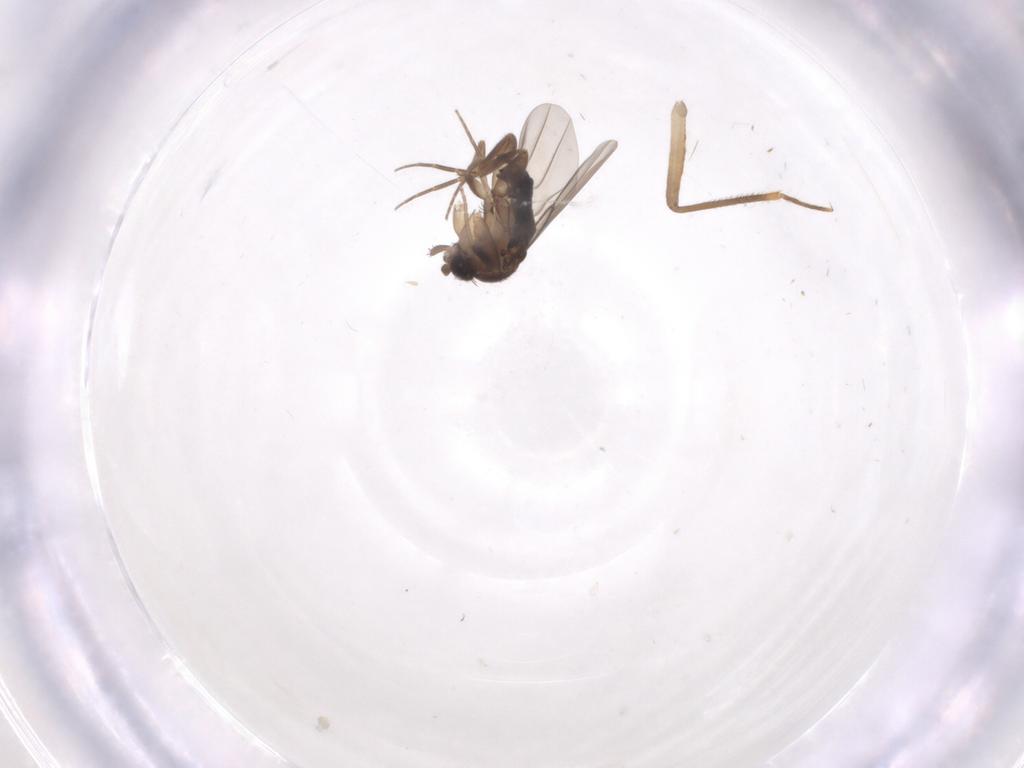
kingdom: Animalia
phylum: Arthropoda
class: Insecta
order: Diptera
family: Phoridae
